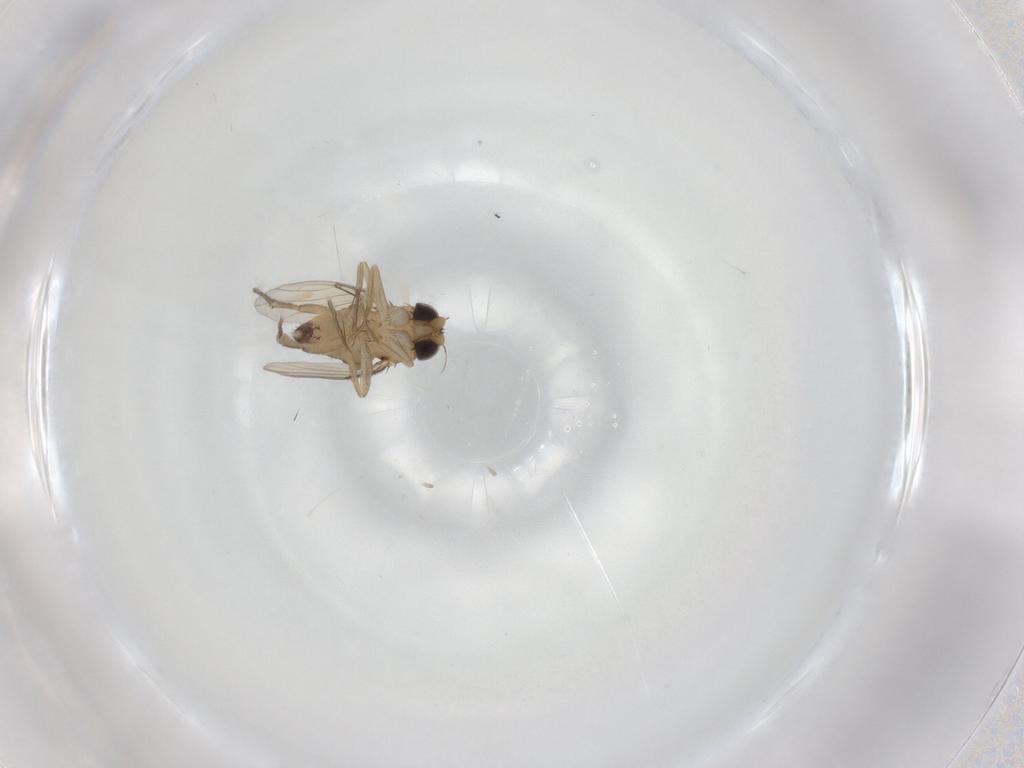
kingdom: Animalia
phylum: Arthropoda
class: Insecta
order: Diptera
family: Phoridae
